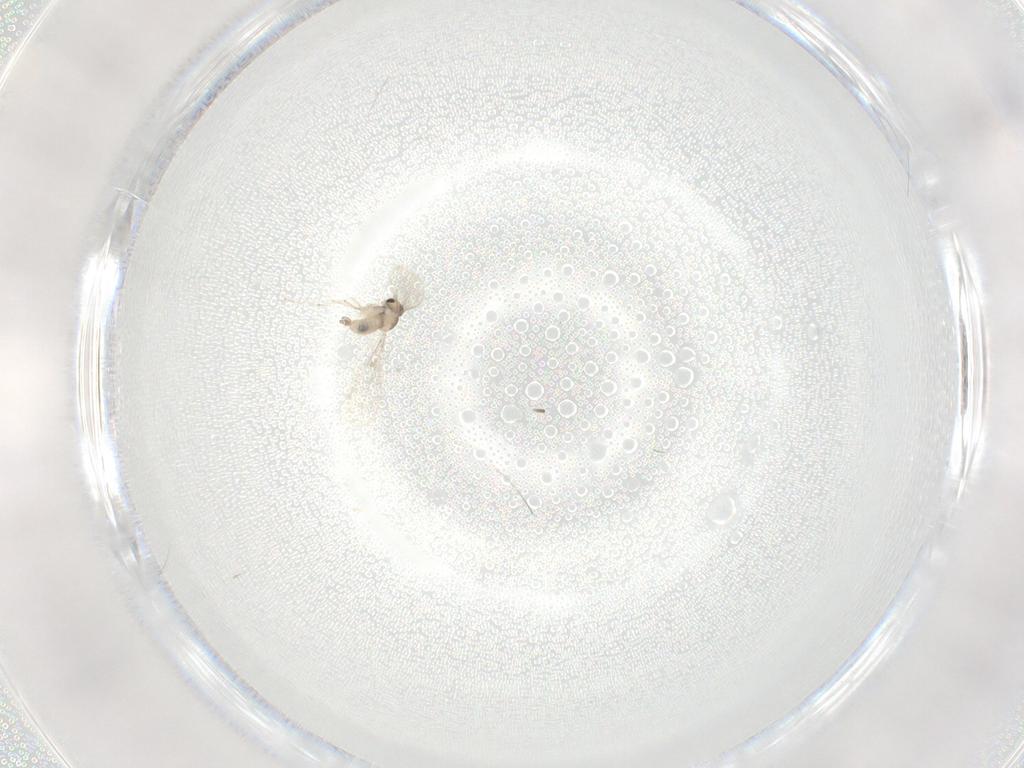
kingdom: Animalia
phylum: Arthropoda
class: Insecta
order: Diptera
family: Cecidomyiidae
